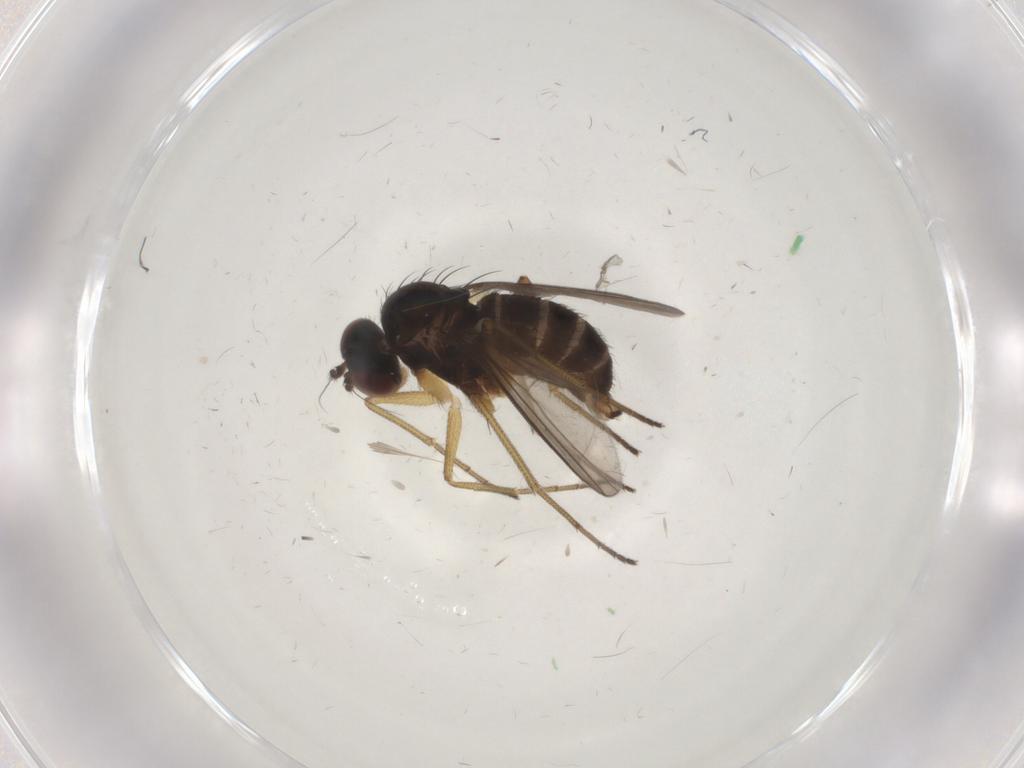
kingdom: Animalia
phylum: Arthropoda
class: Insecta
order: Diptera
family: Dolichopodidae
